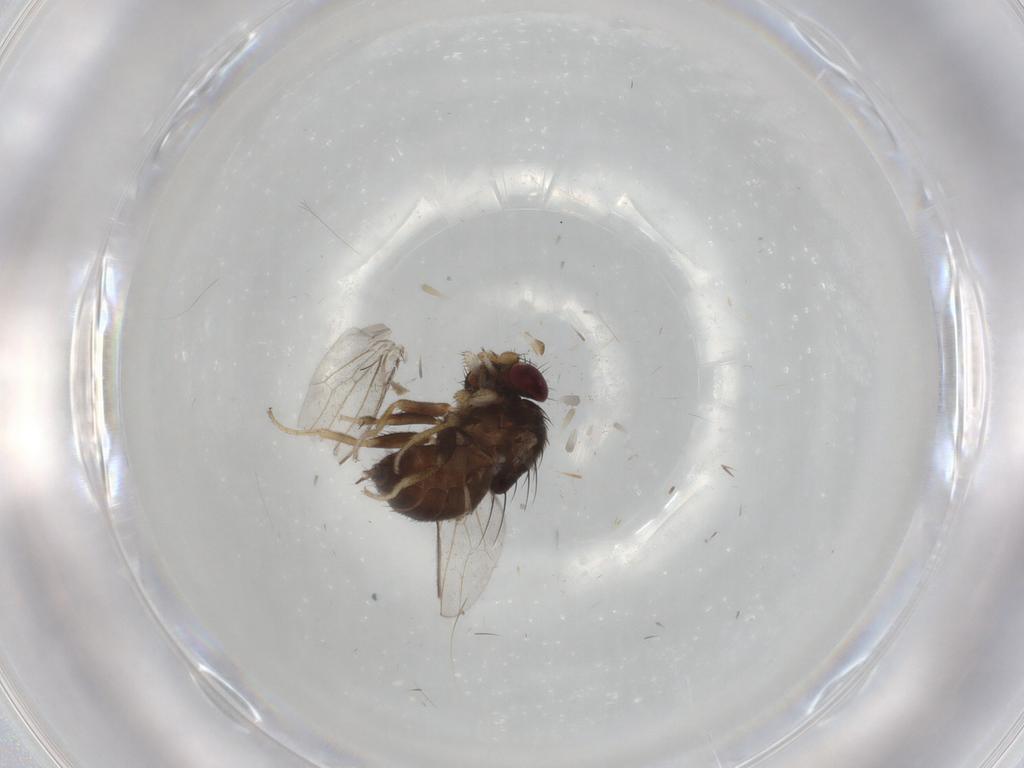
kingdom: Animalia
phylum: Arthropoda
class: Insecta
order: Diptera
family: Milichiidae
